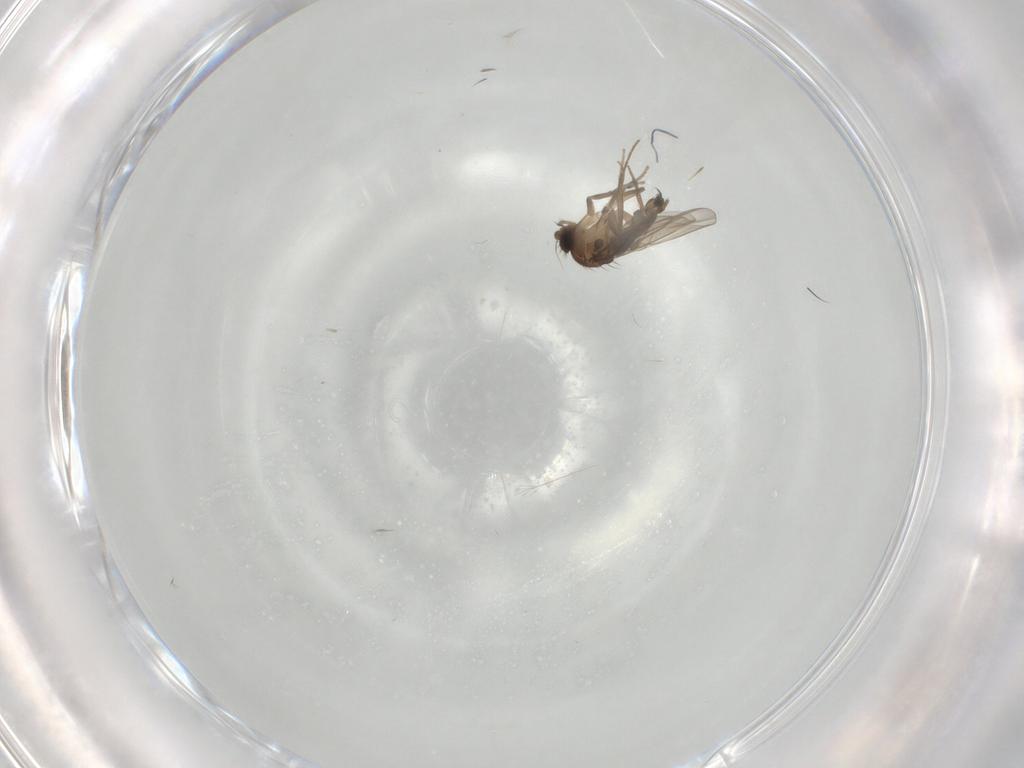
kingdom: Animalia
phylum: Arthropoda
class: Insecta
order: Diptera
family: Phoridae
